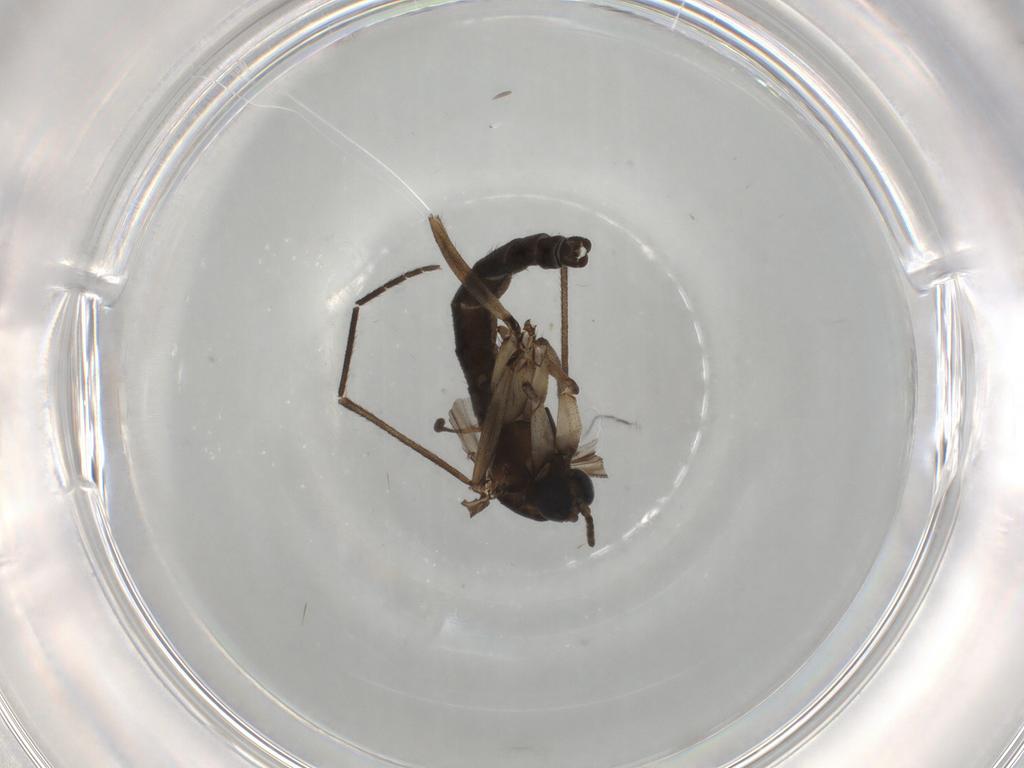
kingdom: Animalia
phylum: Arthropoda
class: Insecta
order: Diptera
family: Sciaridae
